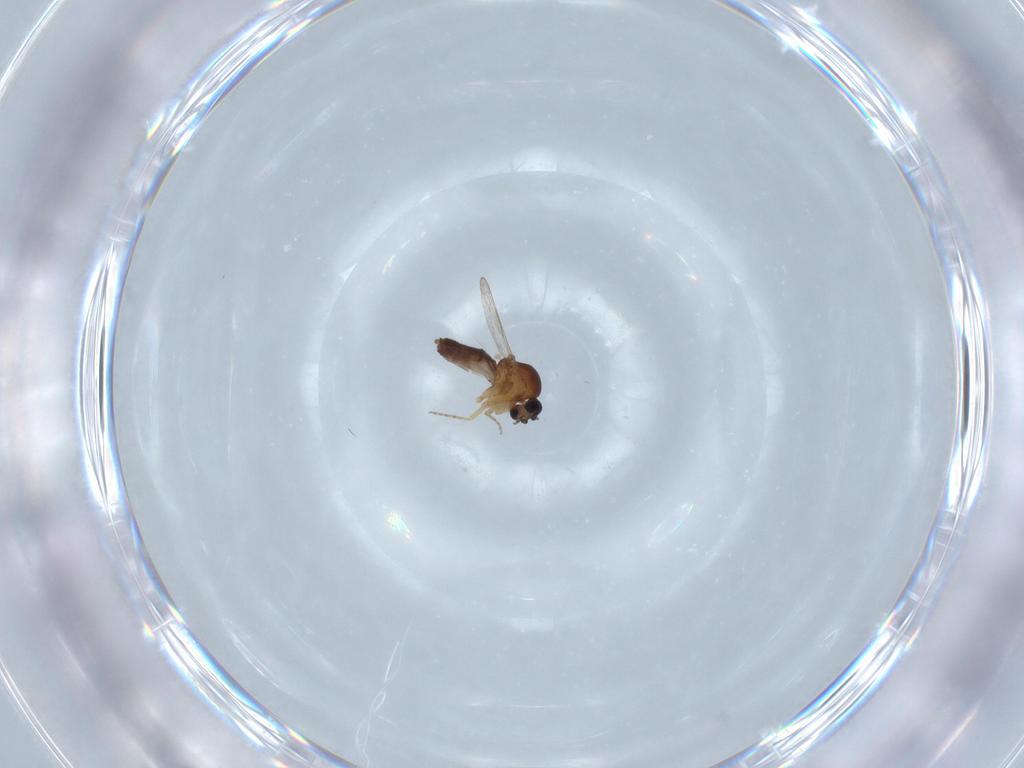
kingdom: Animalia
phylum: Arthropoda
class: Insecta
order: Diptera
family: Ceratopogonidae
